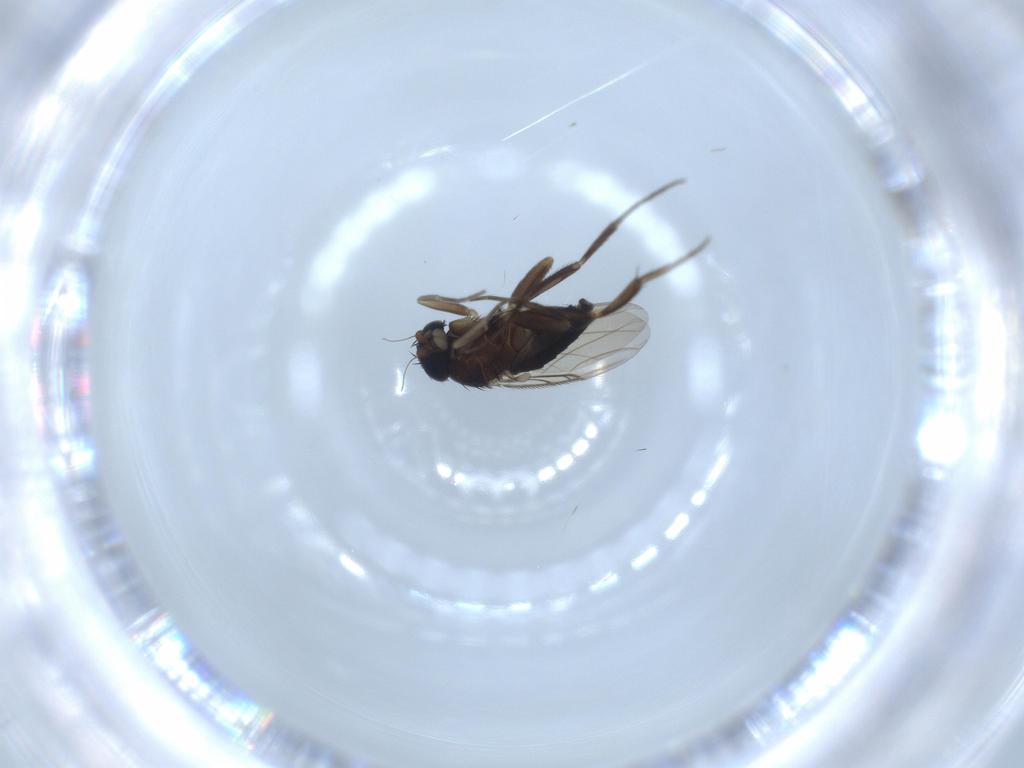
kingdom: Animalia
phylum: Arthropoda
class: Insecta
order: Diptera
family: Phoridae
